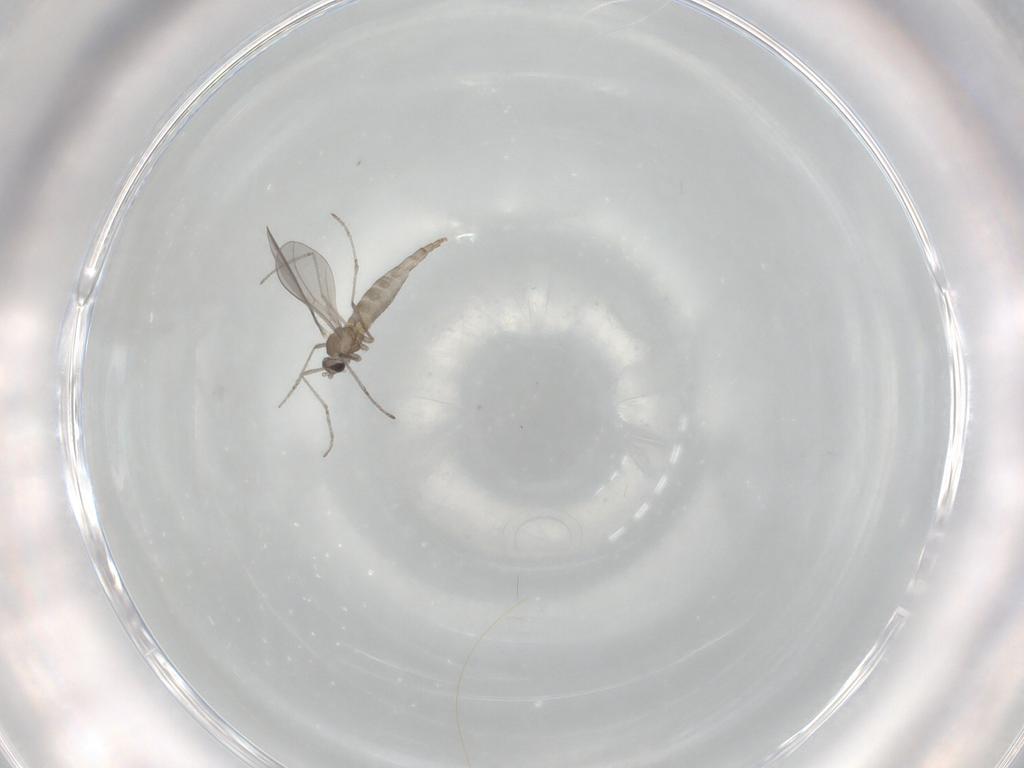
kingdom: Animalia
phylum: Arthropoda
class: Insecta
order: Diptera
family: Cecidomyiidae
